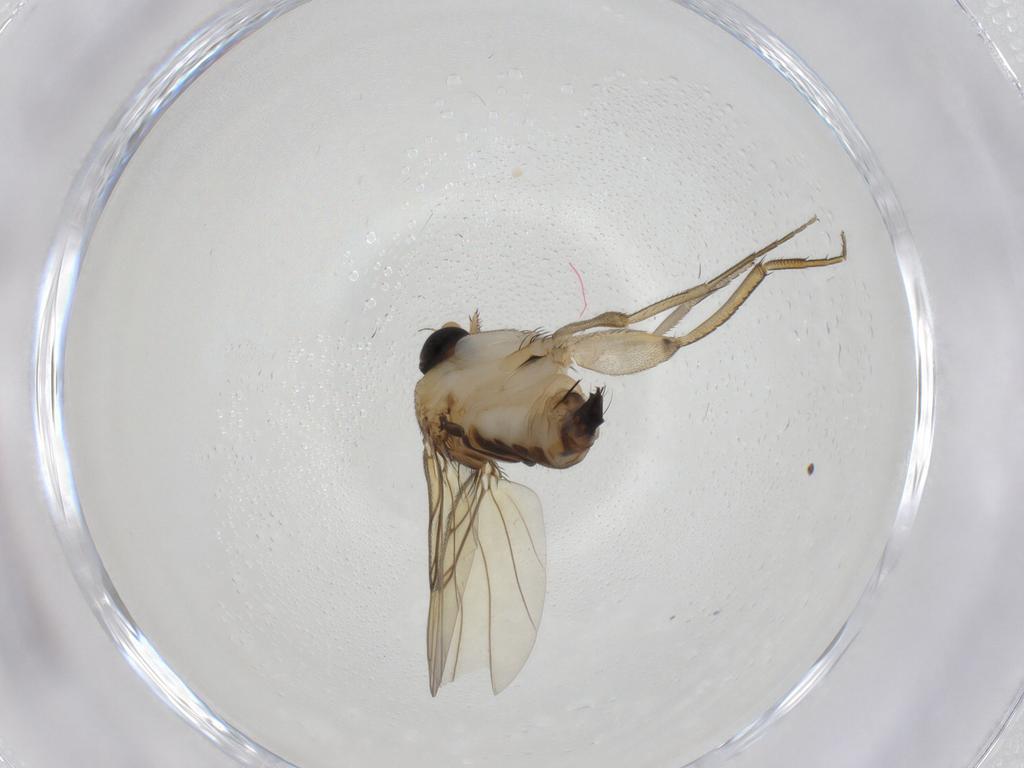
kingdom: Animalia
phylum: Arthropoda
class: Insecta
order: Diptera
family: Phoridae
